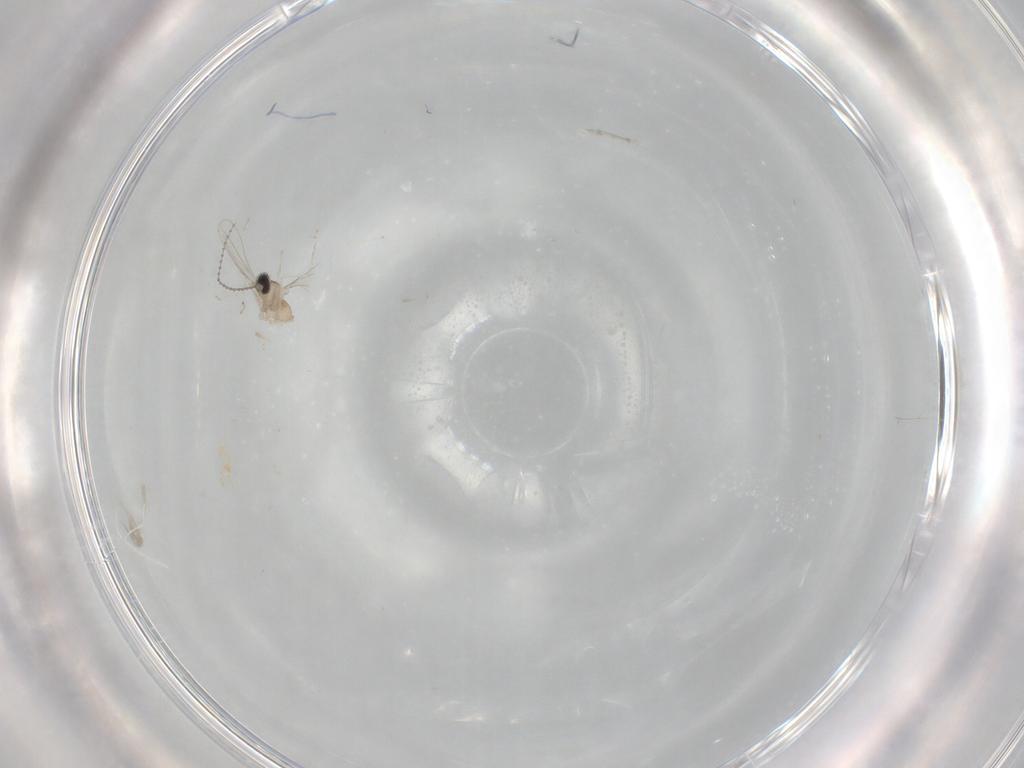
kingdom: Animalia
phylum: Arthropoda
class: Insecta
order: Diptera
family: Cecidomyiidae
